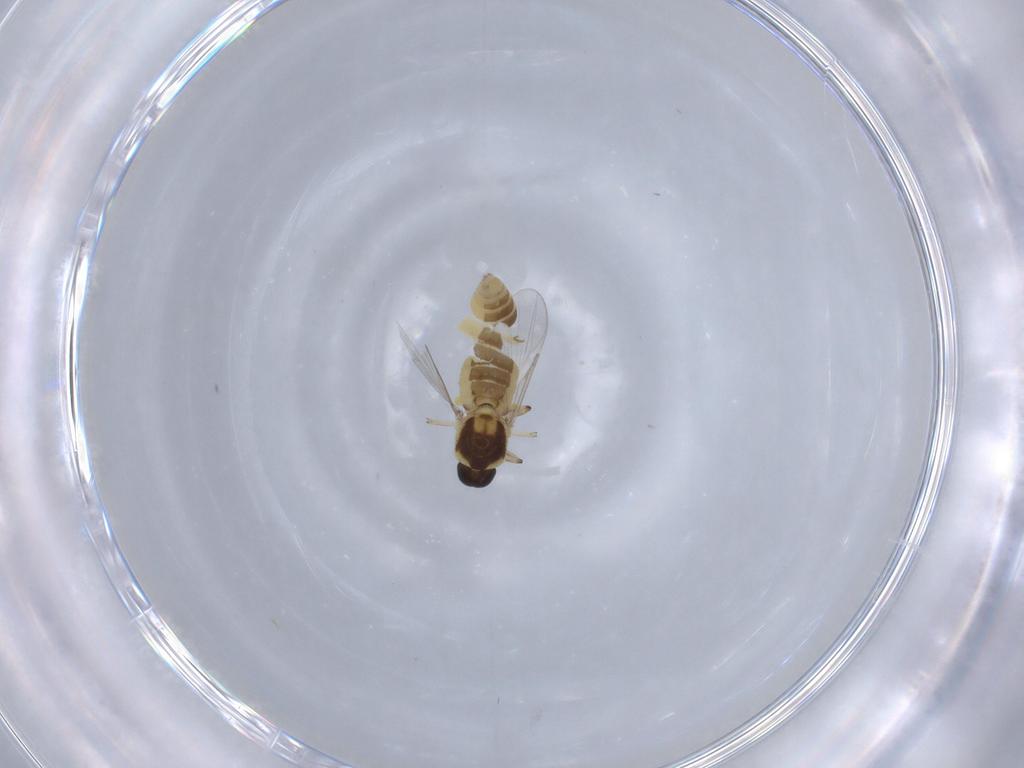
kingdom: Animalia
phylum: Arthropoda
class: Insecta
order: Diptera
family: Ceratopogonidae
